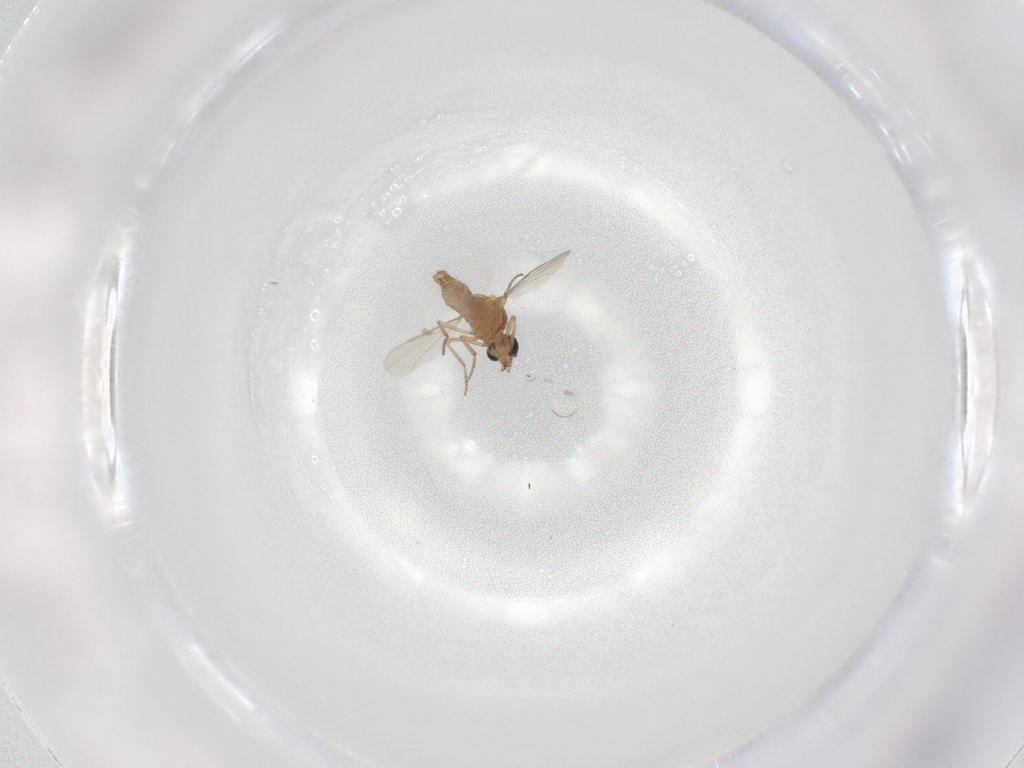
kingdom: Animalia
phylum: Arthropoda
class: Insecta
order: Diptera
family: Ceratopogonidae
